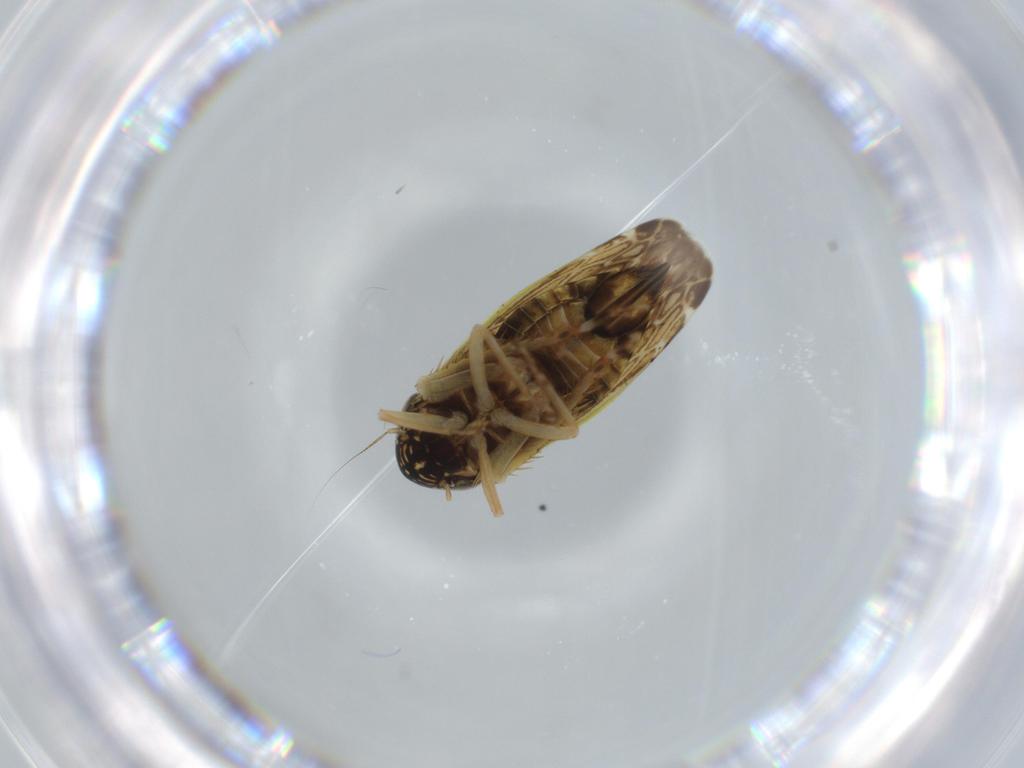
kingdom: Animalia
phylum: Arthropoda
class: Insecta
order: Hemiptera
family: Cicadellidae
